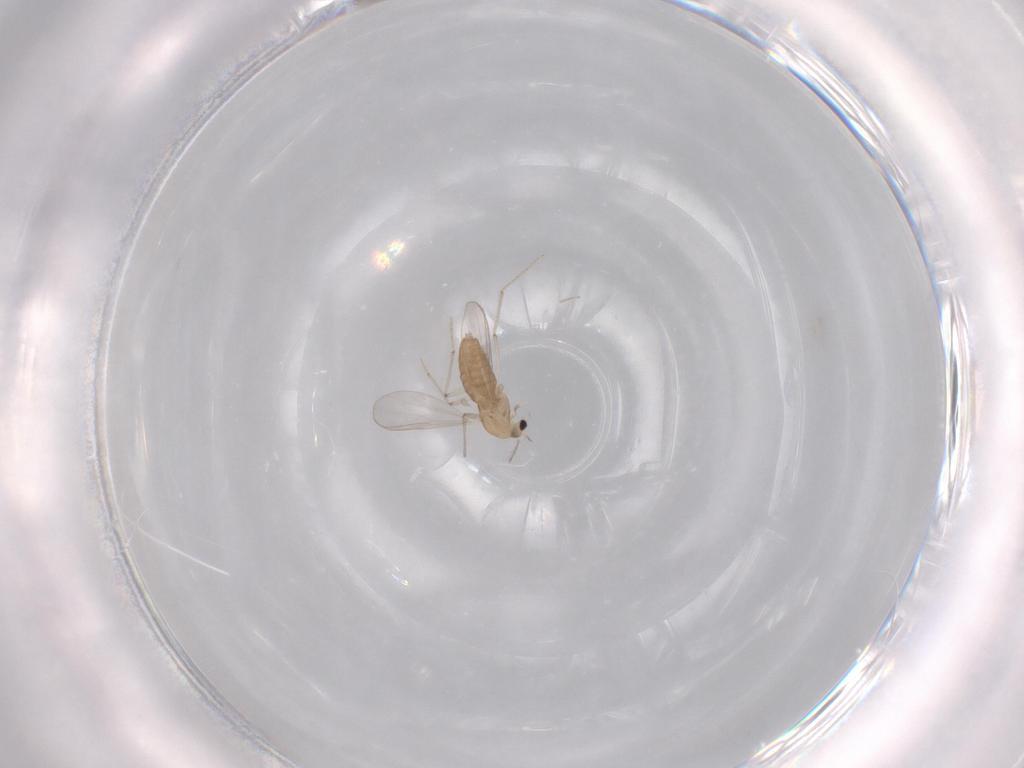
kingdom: Animalia
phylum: Arthropoda
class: Insecta
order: Diptera
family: Chironomidae
